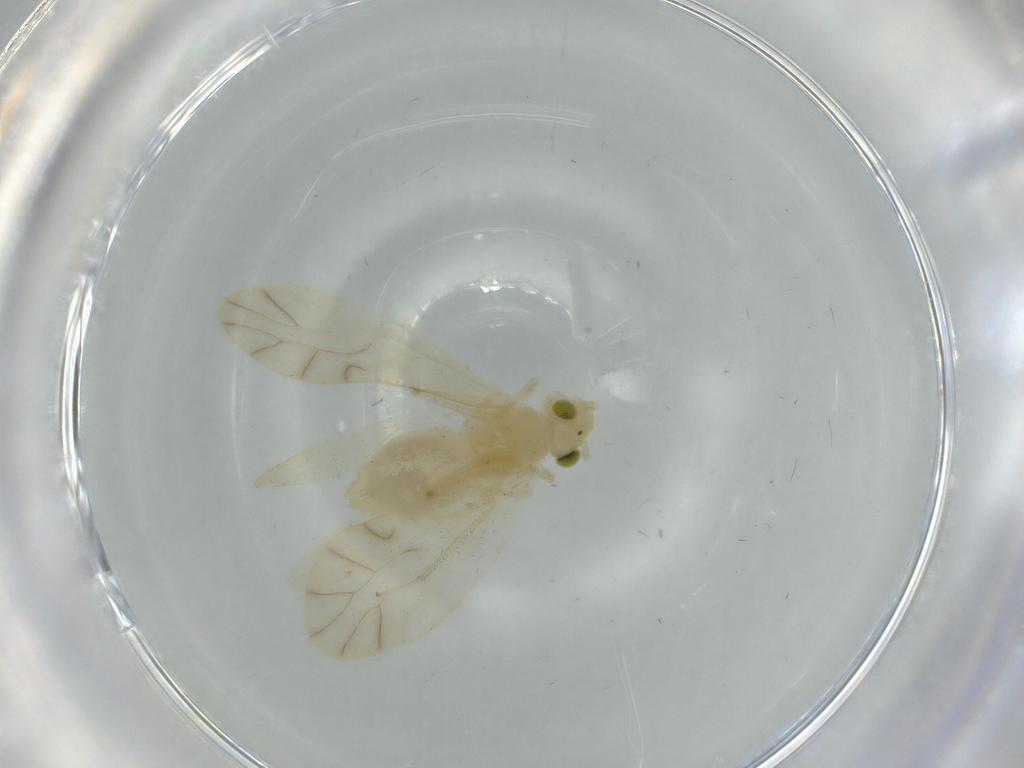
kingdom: Animalia
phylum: Arthropoda
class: Insecta
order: Psocodea
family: Caeciliusidae
